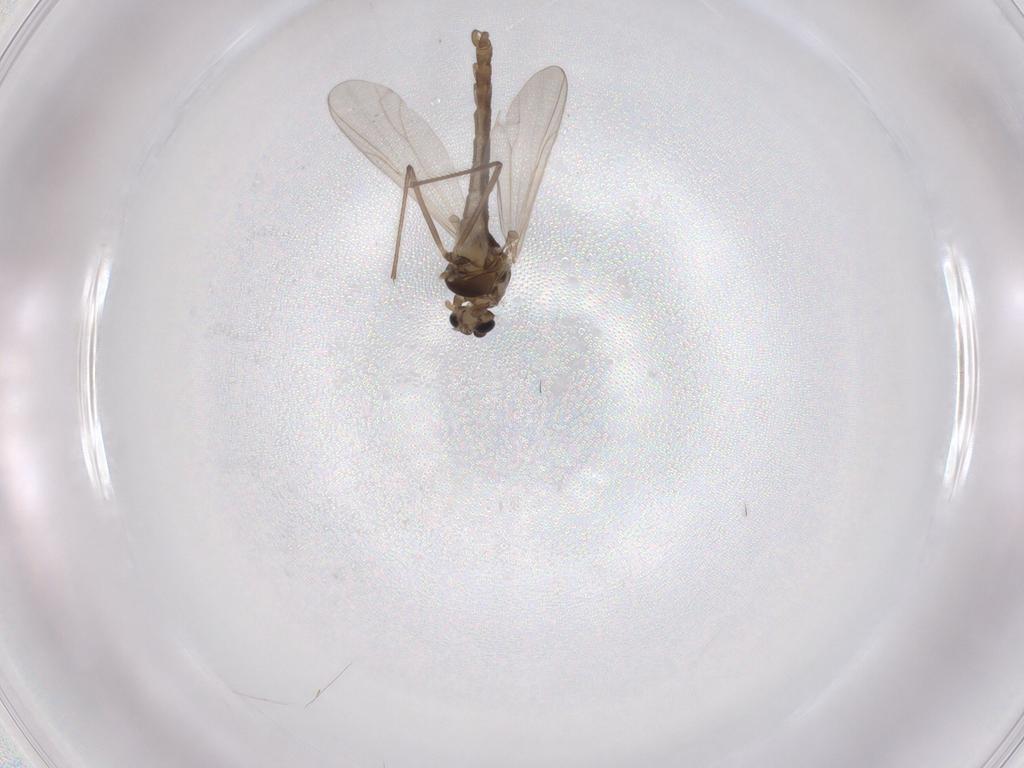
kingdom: Animalia
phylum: Arthropoda
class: Insecta
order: Diptera
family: Chironomidae
